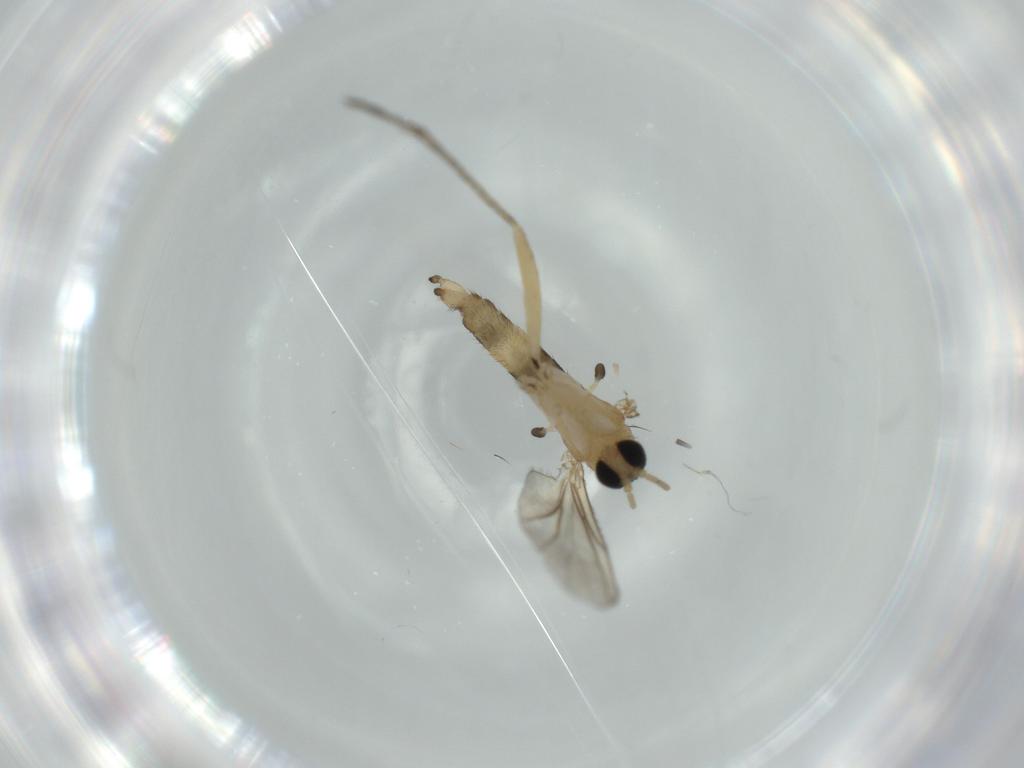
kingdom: Animalia
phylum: Arthropoda
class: Insecta
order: Diptera
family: Sciaridae
